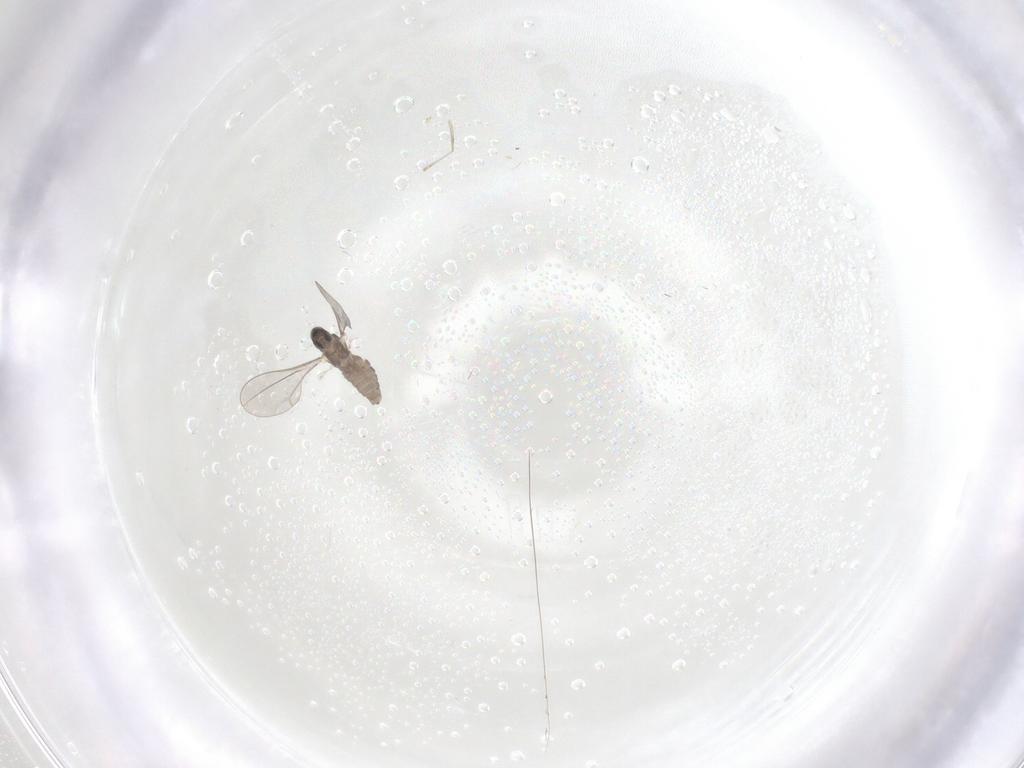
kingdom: Animalia
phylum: Arthropoda
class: Insecta
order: Diptera
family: Cecidomyiidae
